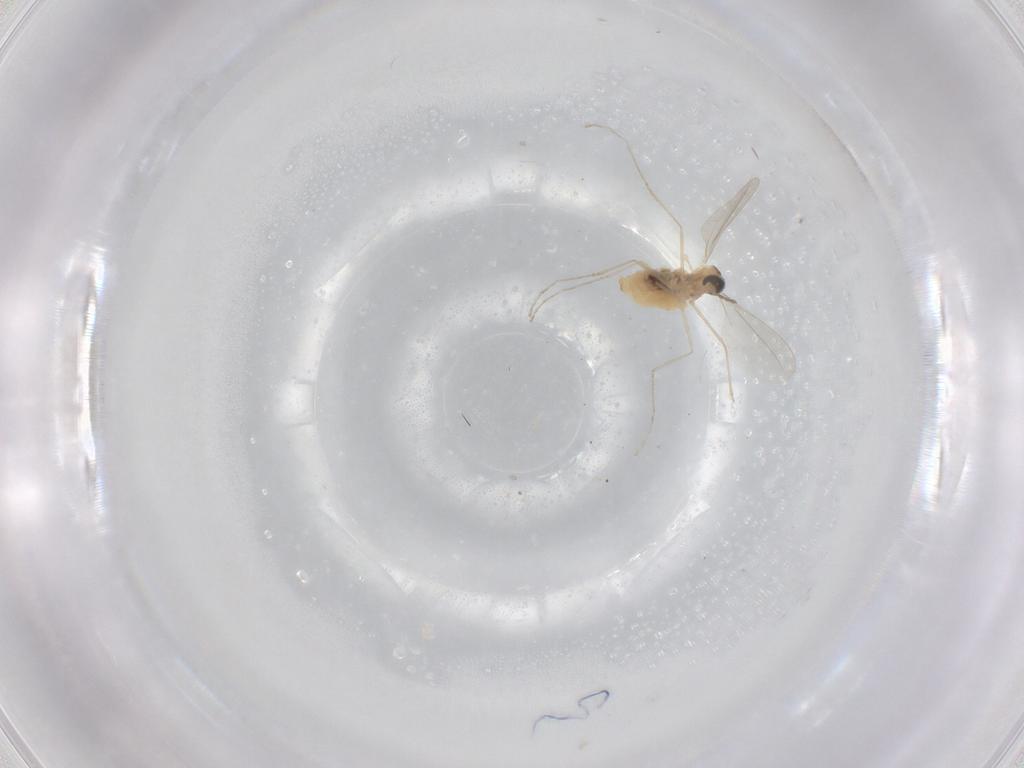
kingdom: Animalia
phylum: Arthropoda
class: Insecta
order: Diptera
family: Cecidomyiidae
